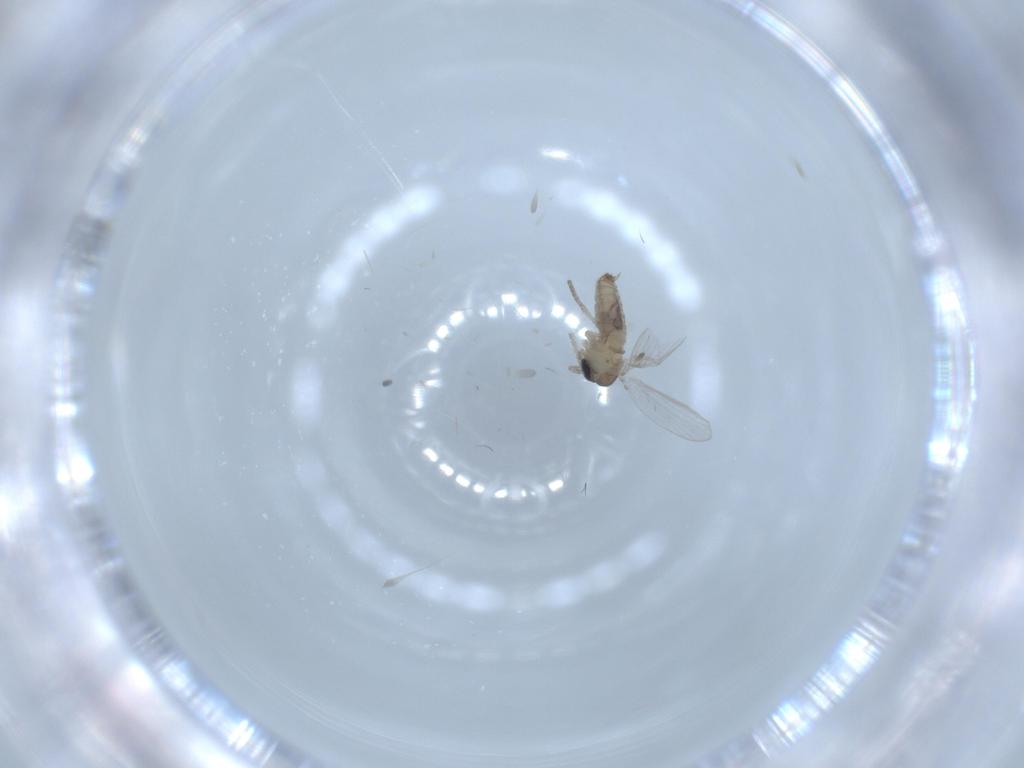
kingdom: Animalia
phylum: Arthropoda
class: Insecta
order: Diptera
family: Psychodidae
